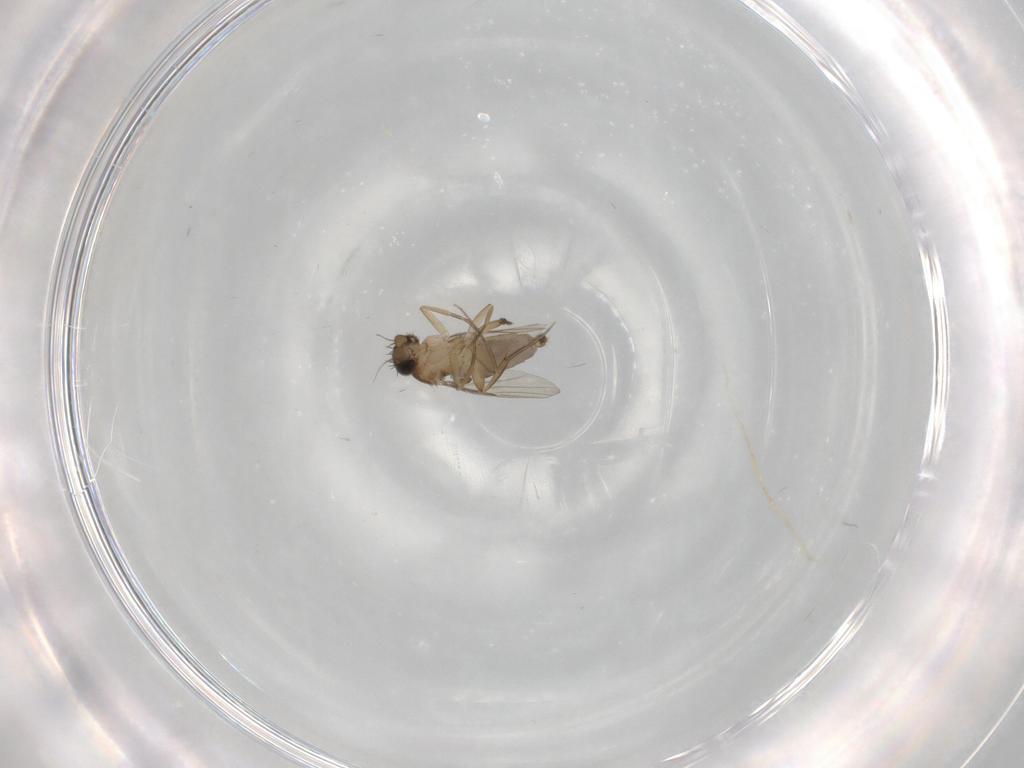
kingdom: Animalia
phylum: Arthropoda
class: Insecta
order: Diptera
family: Phoridae
